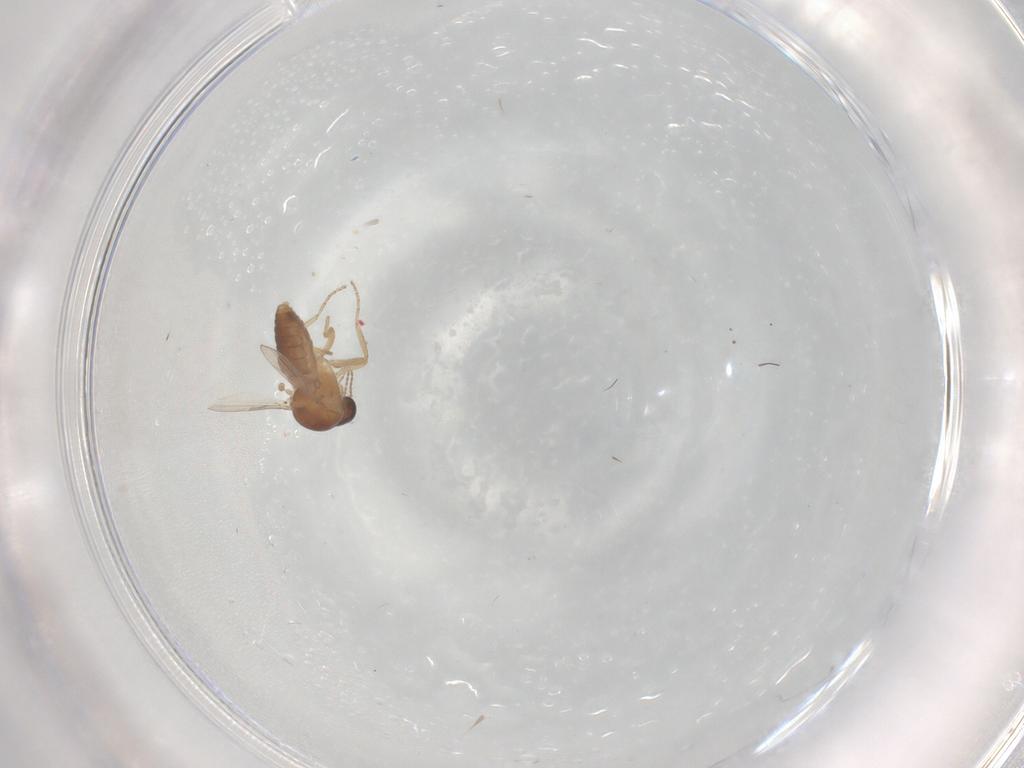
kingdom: Animalia
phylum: Arthropoda
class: Insecta
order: Diptera
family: Ceratopogonidae
